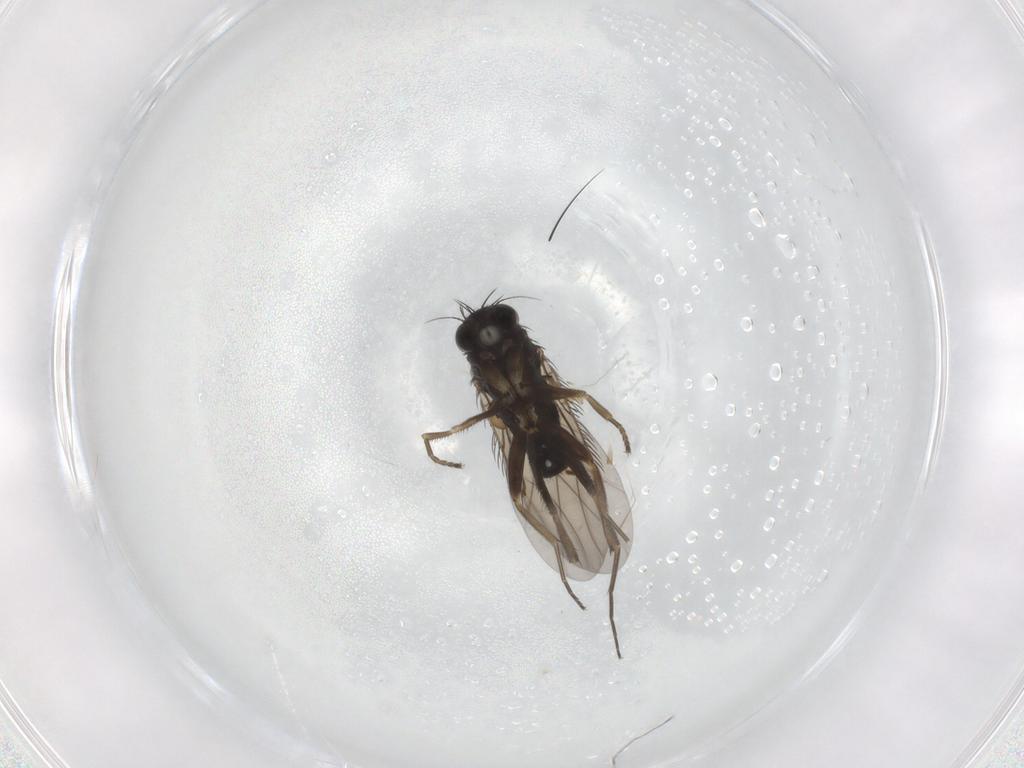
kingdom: Animalia
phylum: Arthropoda
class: Insecta
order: Diptera
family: Phoridae
